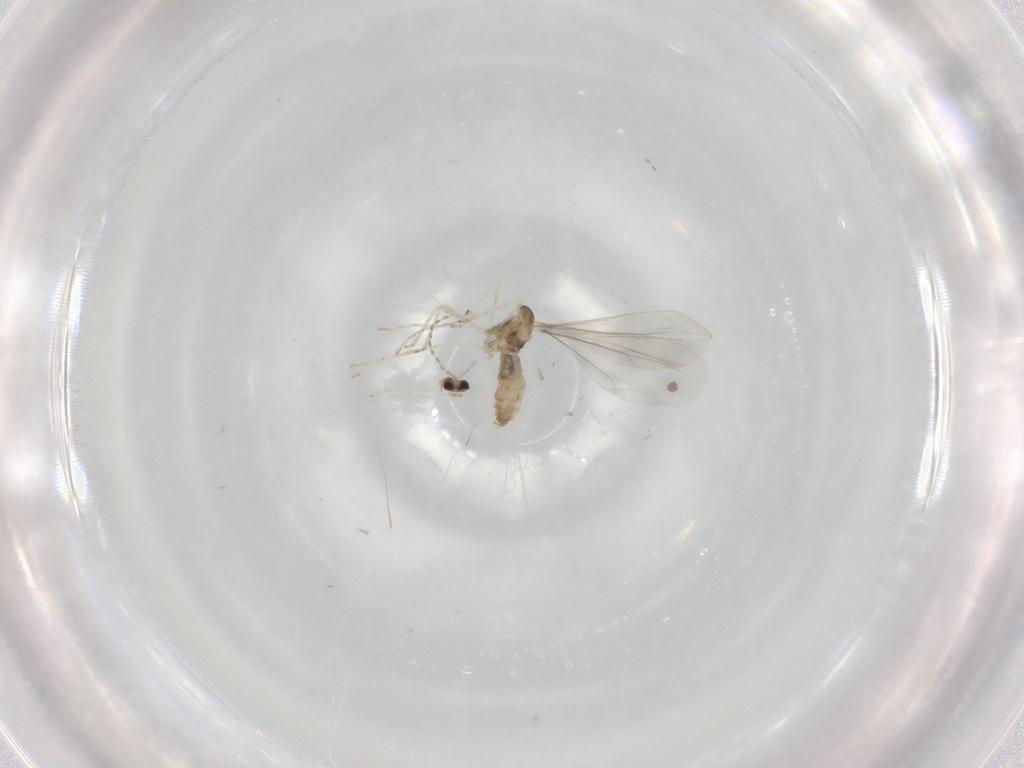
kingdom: Animalia
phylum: Arthropoda
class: Insecta
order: Diptera
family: Cecidomyiidae
